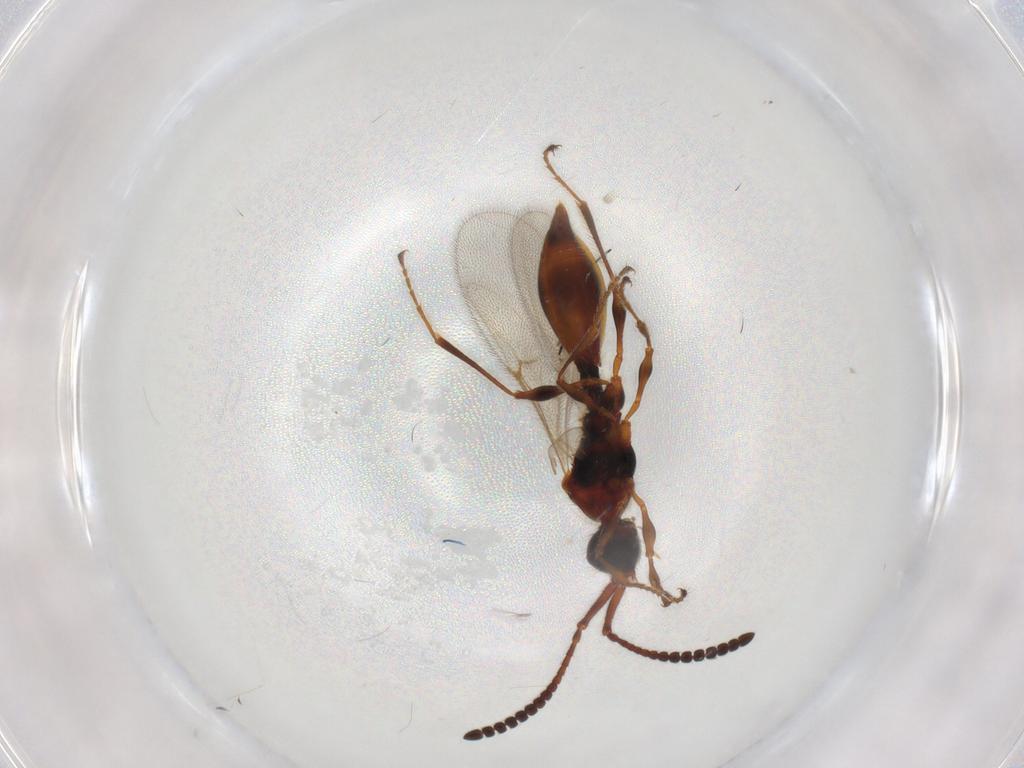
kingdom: Animalia
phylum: Arthropoda
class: Insecta
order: Hymenoptera
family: Diapriidae
